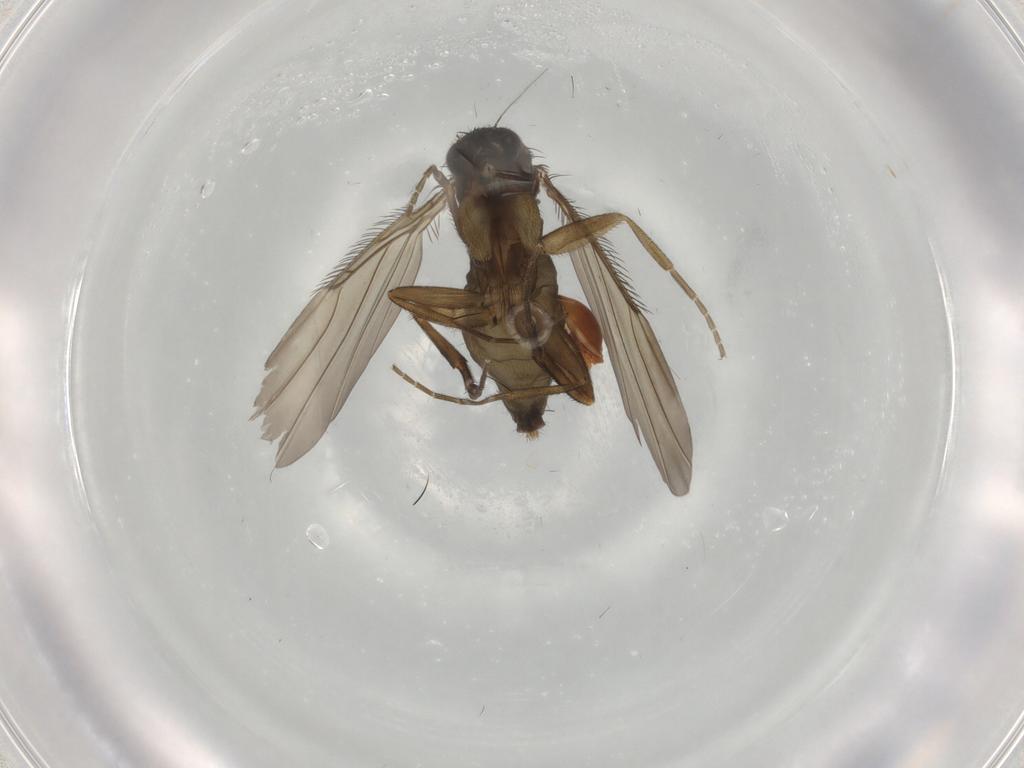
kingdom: Animalia
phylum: Arthropoda
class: Insecta
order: Diptera
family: Phoridae
